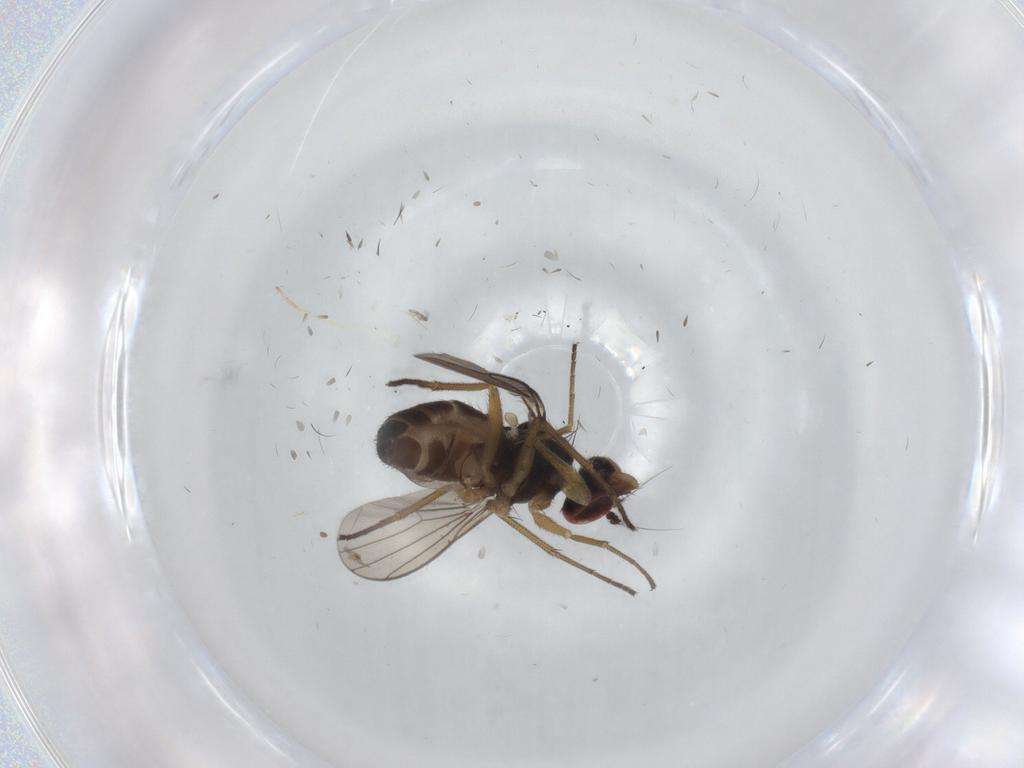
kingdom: Animalia
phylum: Arthropoda
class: Insecta
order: Diptera
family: Dolichopodidae
